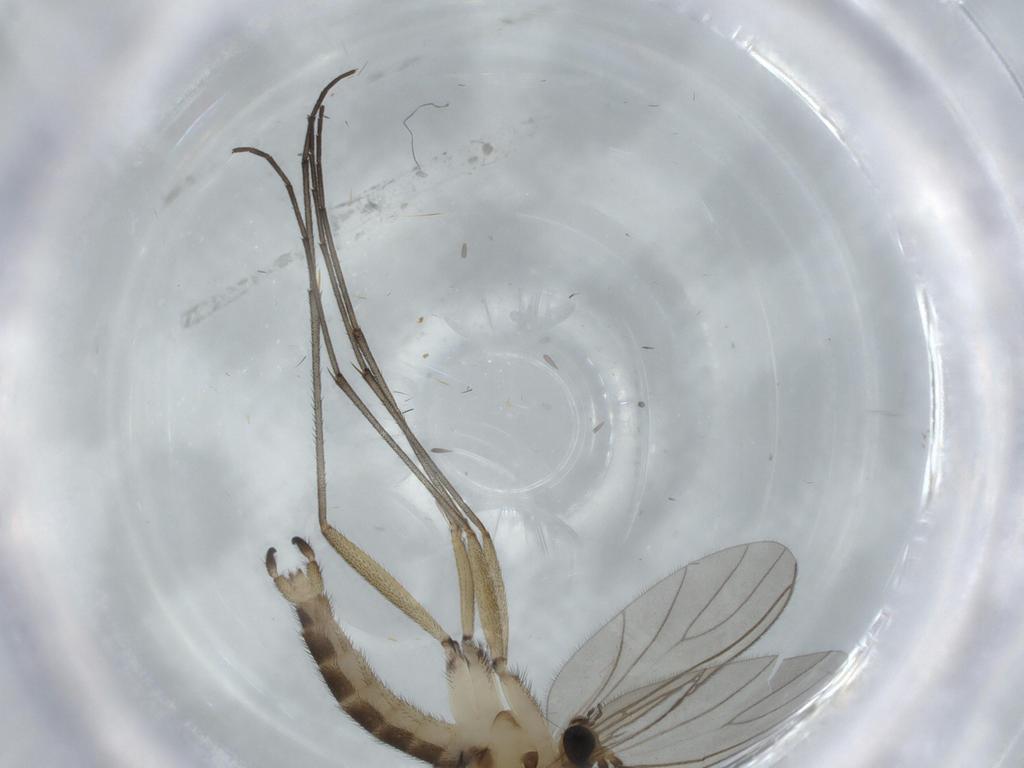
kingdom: Animalia
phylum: Arthropoda
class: Insecta
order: Diptera
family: Sciaridae
